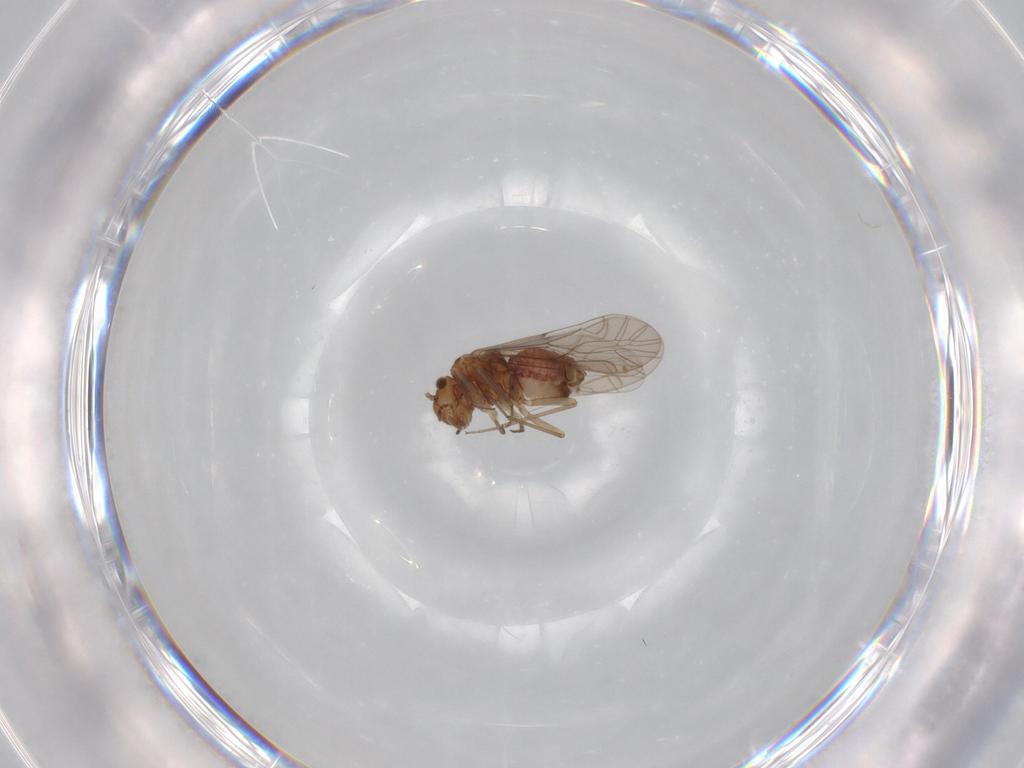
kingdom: Animalia
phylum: Arthropoda
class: Insecta
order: Psocodea
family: Lachesillidae
